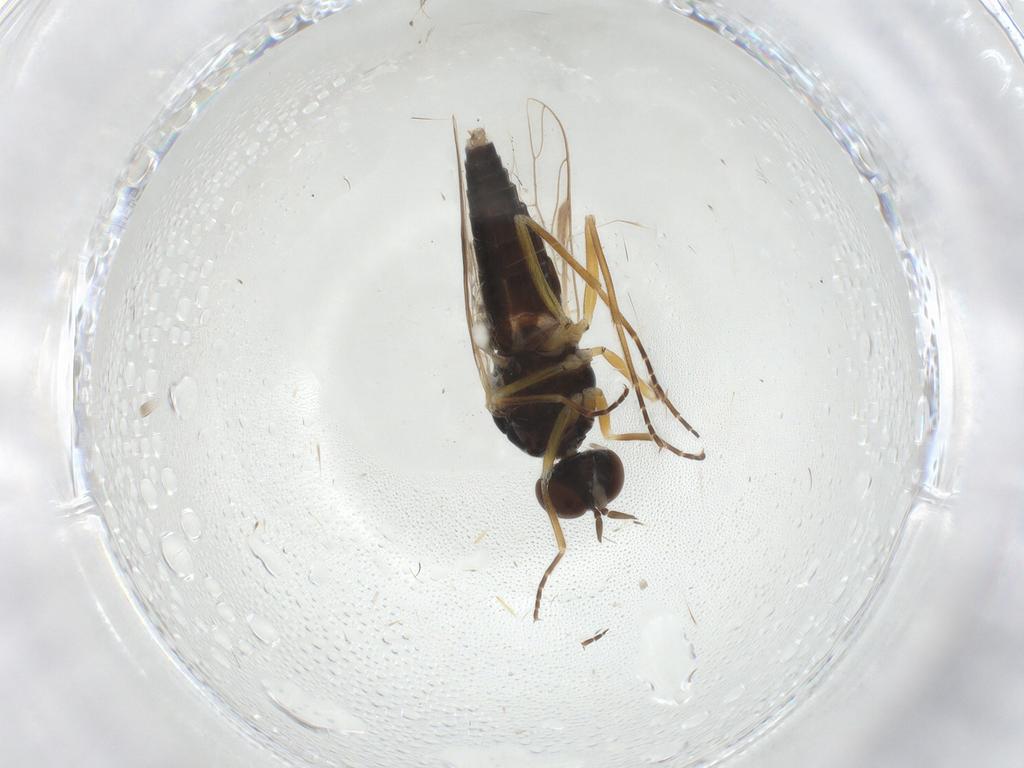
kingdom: Animalia
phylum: Arthropoda
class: Insecta
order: Diptera
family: Scenopinidae
